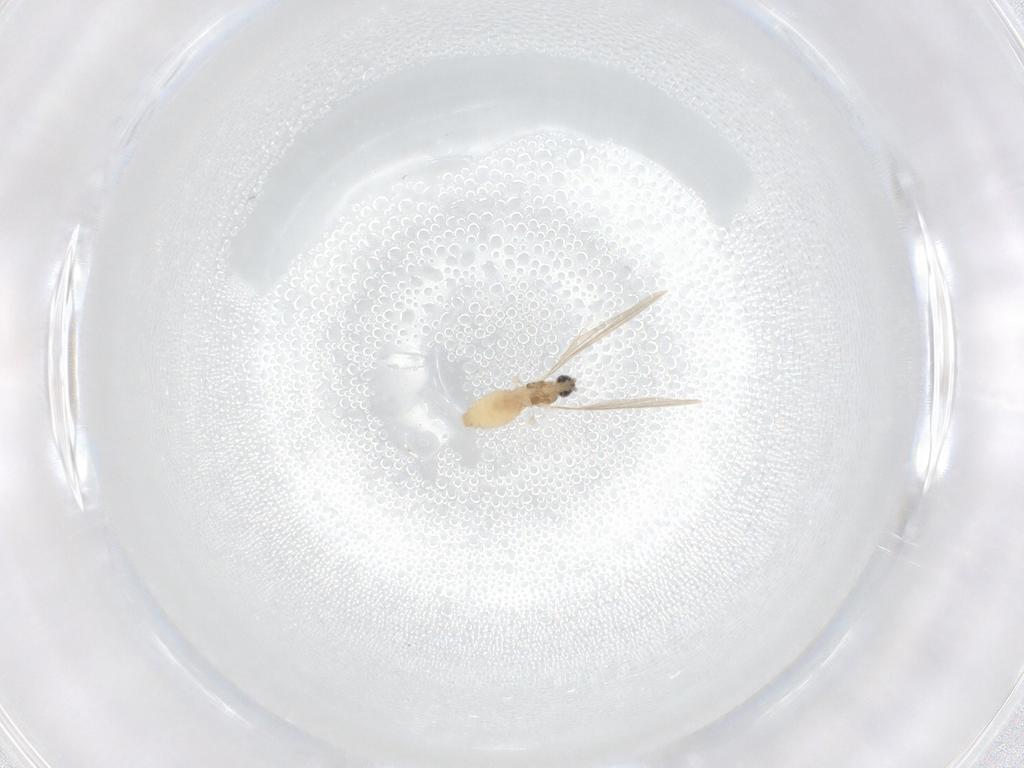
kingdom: Animalia
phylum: Arthropoda
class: Insecta
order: Diptera
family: Cecidomyiidae
